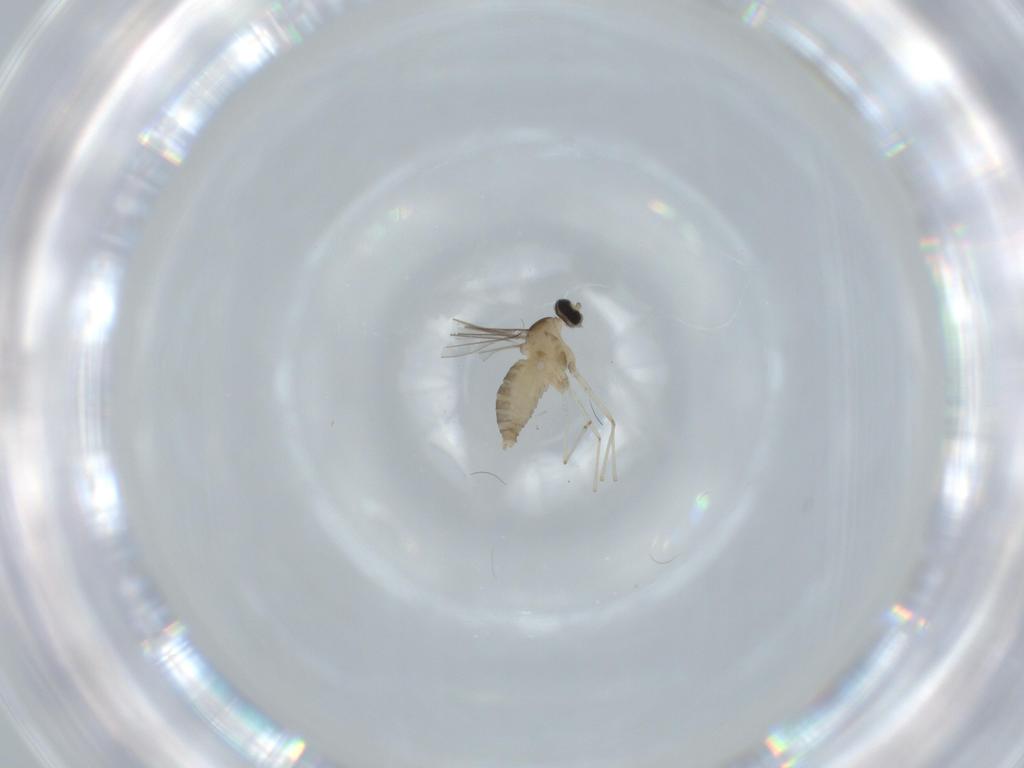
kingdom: Animalia
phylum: Arthropoda
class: Insecta
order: Diptera
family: Cecidomyiidae
